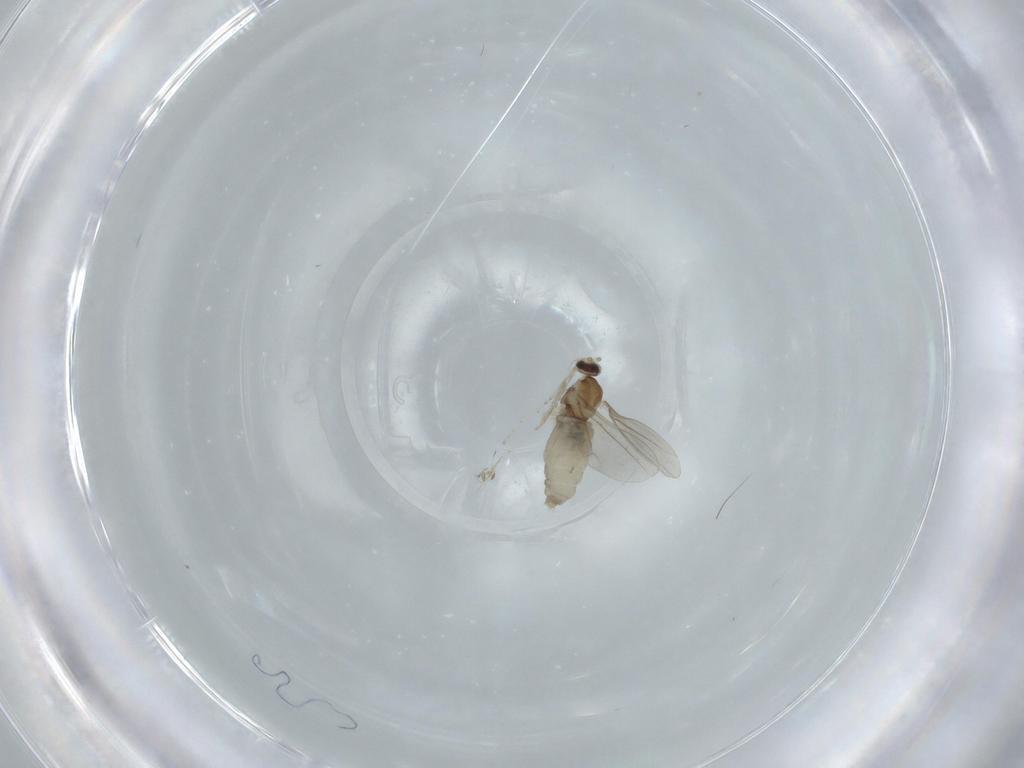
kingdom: Animalia
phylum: Arthropoda
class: Insecta
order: Diptera
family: Cecidomyiidae
